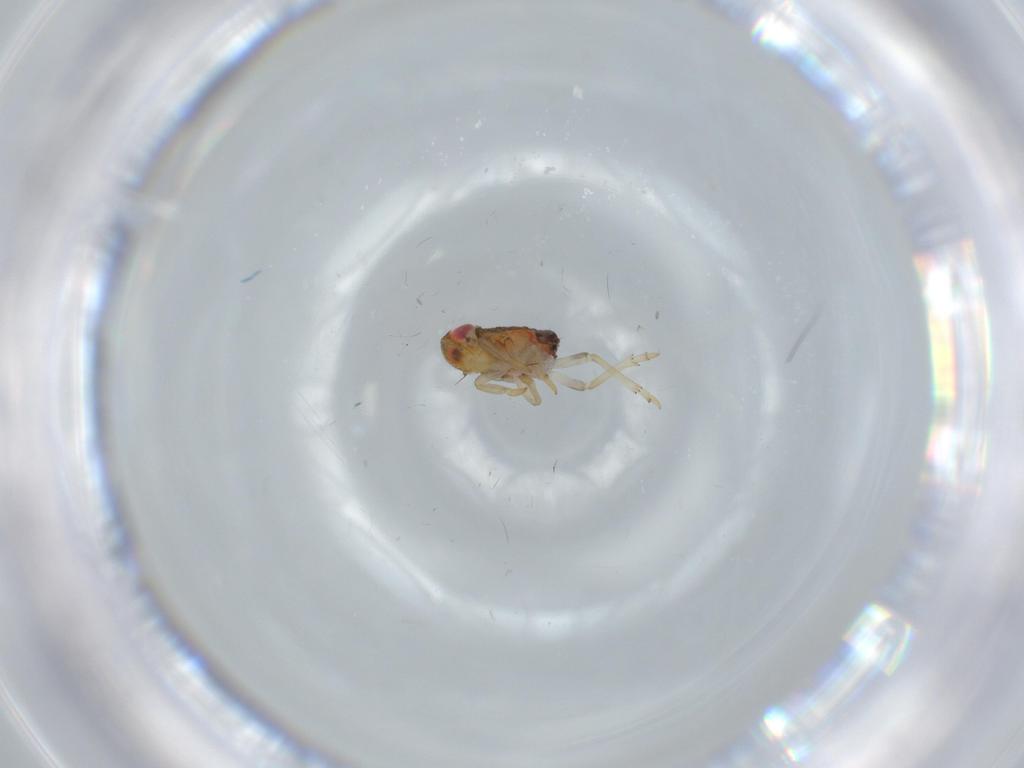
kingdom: Animalia
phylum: Arthropoda
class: Insecta
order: Hemiptera
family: Issidae
